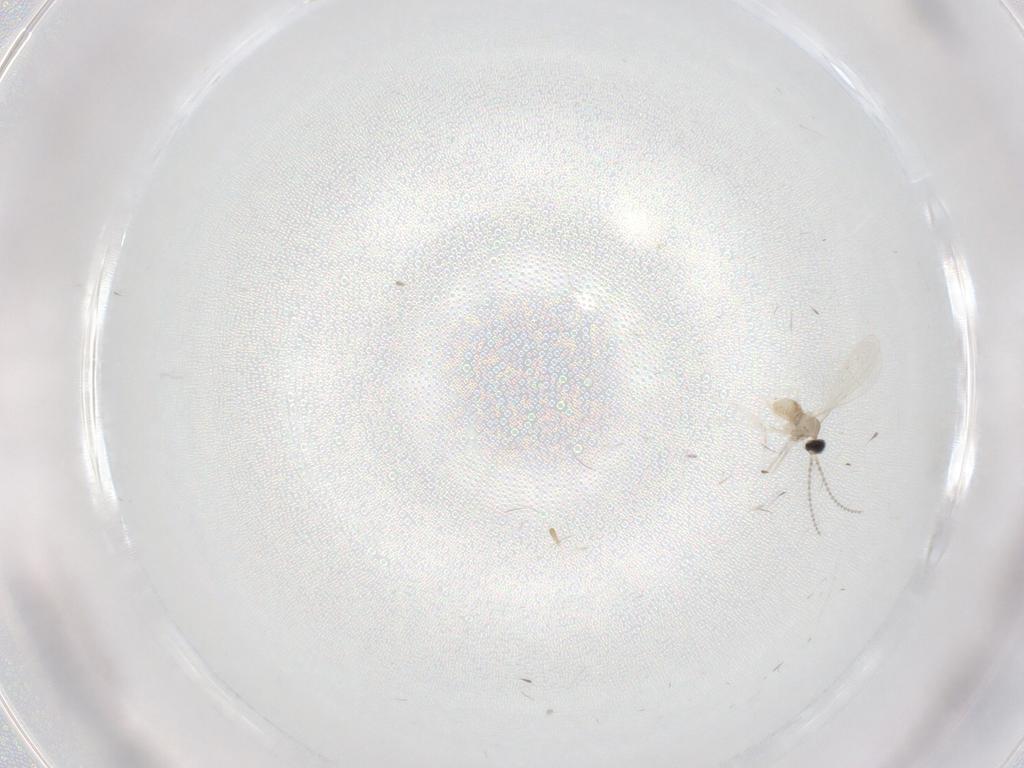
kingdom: Animalia
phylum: Arthropoda
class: Insecta
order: Diptera
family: Cecidomyiidae
